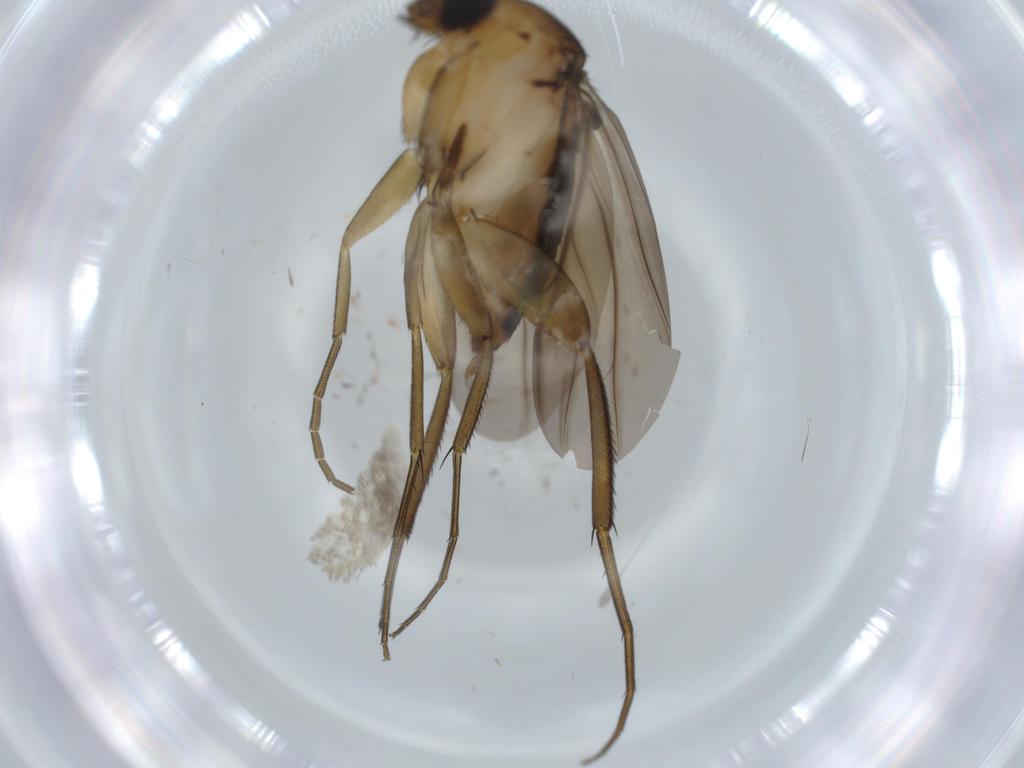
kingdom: Animalia
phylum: Arthropoda
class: Insecta
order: Diptera
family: Phoridae
